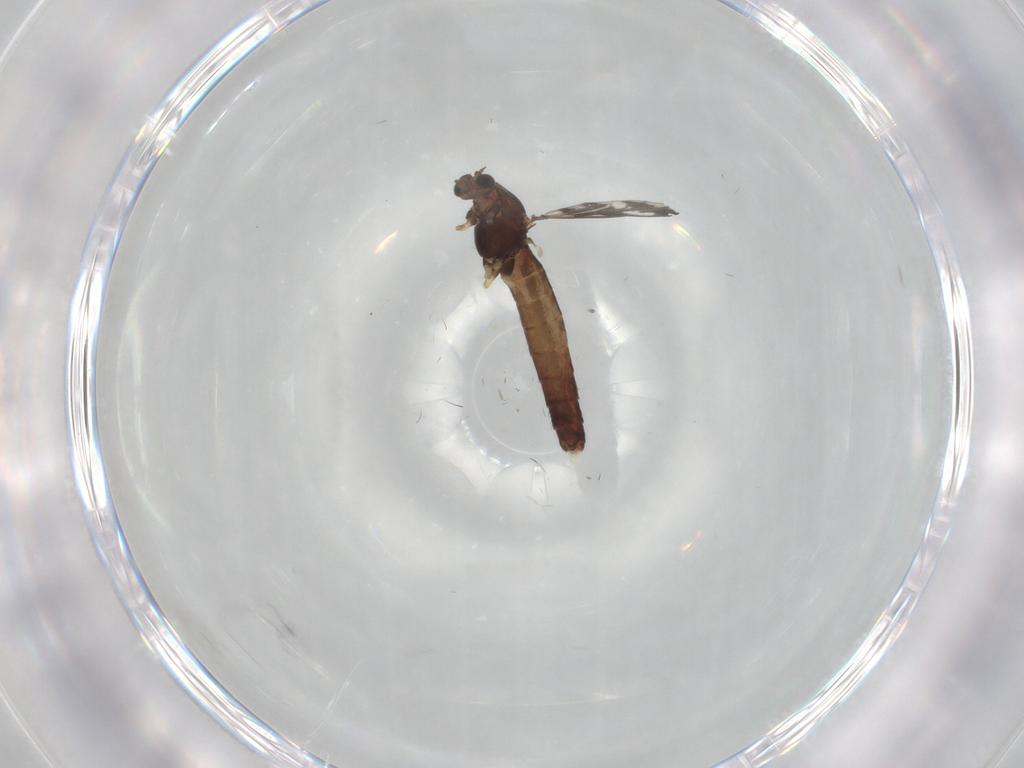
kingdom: Animalia
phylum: Arthropoda
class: Insecta
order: Diptera
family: Chironomidae
